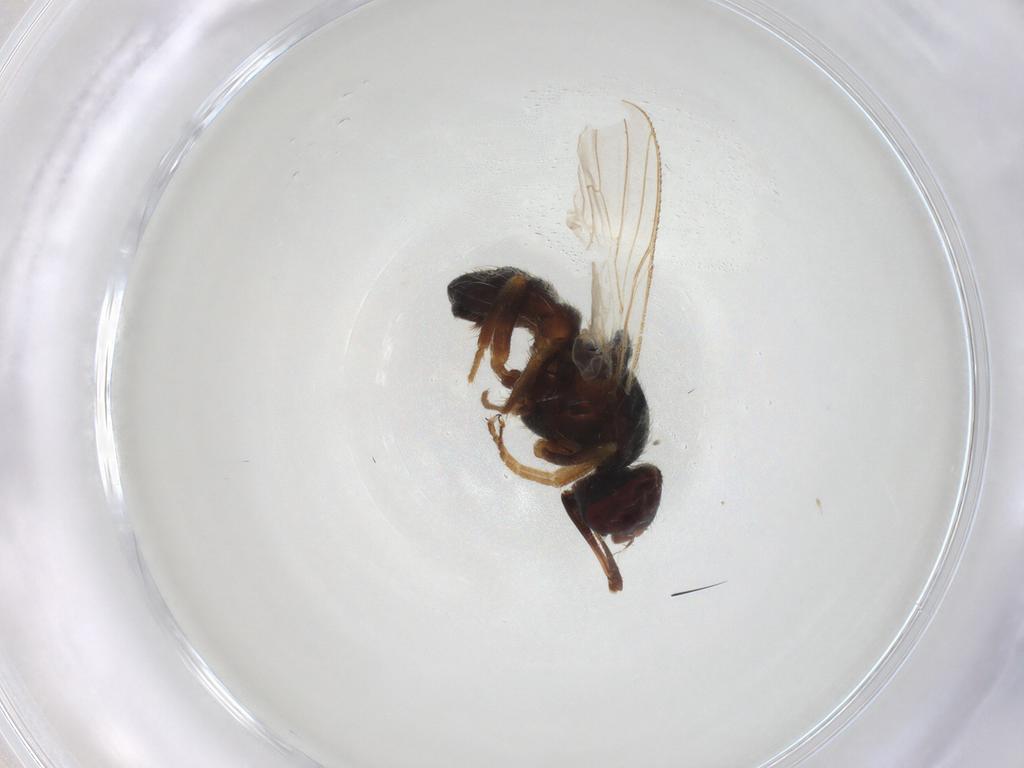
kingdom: Animalia
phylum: Arthropoda
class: Insecta
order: Diptera
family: Muscidae
